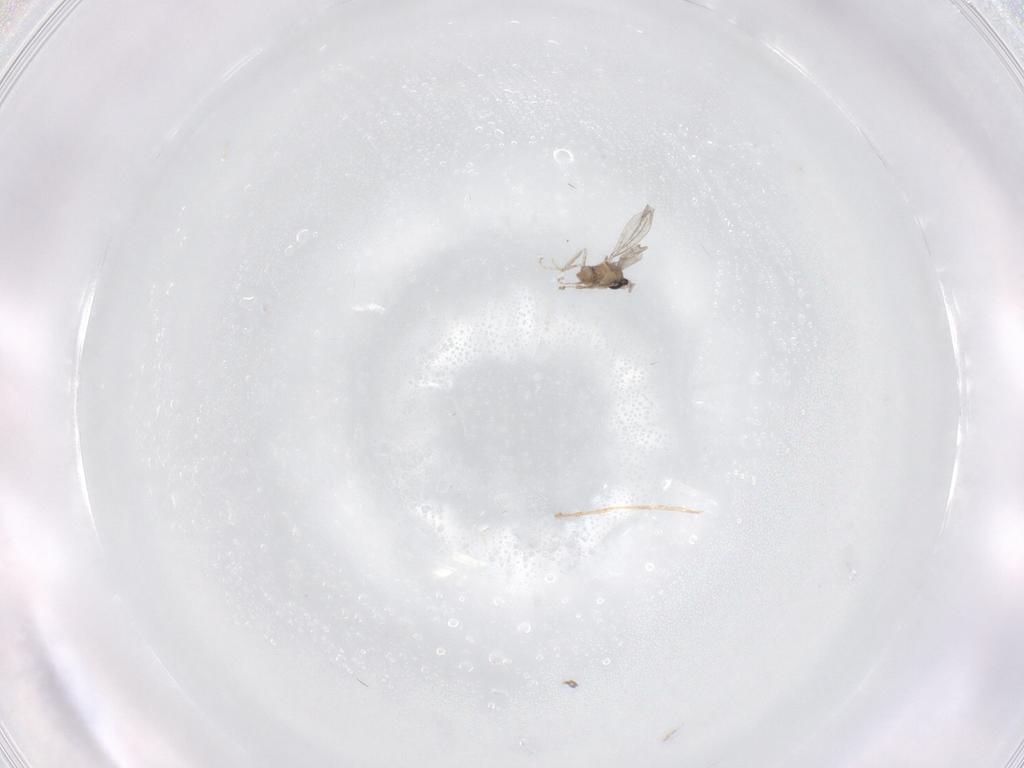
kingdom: Animalia
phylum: Arthropoda
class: Insecta
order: Diptera
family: Cecidomyiidae
